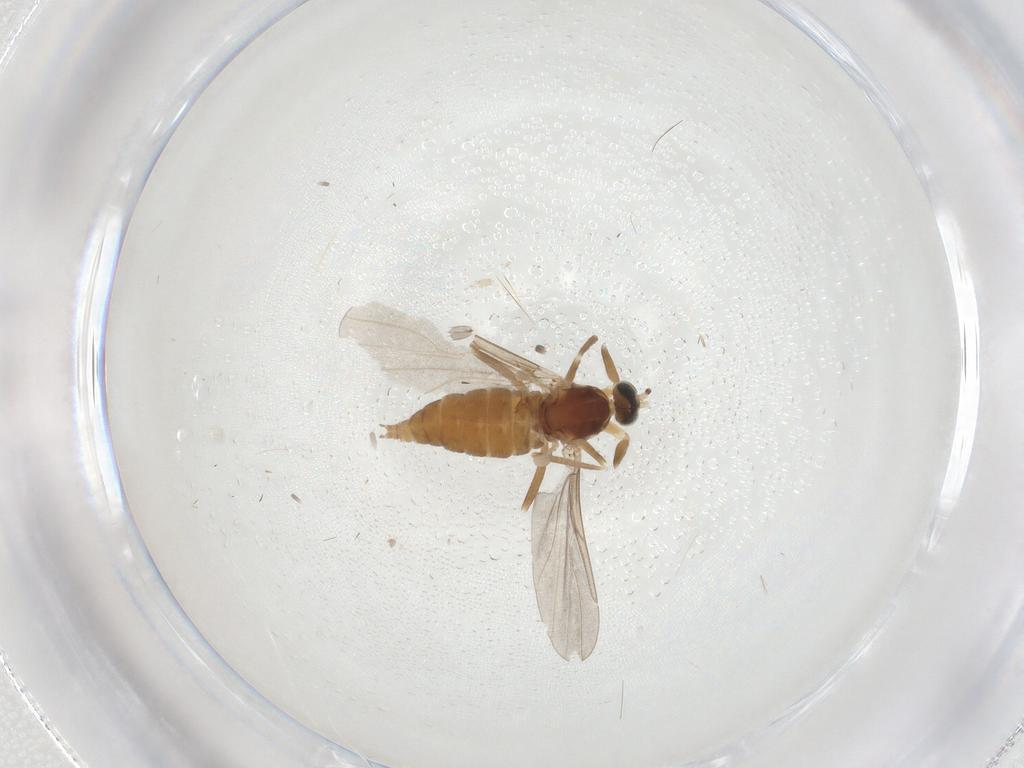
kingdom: Animalia
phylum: Arthropoda
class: Insecta
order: Diptera
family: Cecidomyiidae
